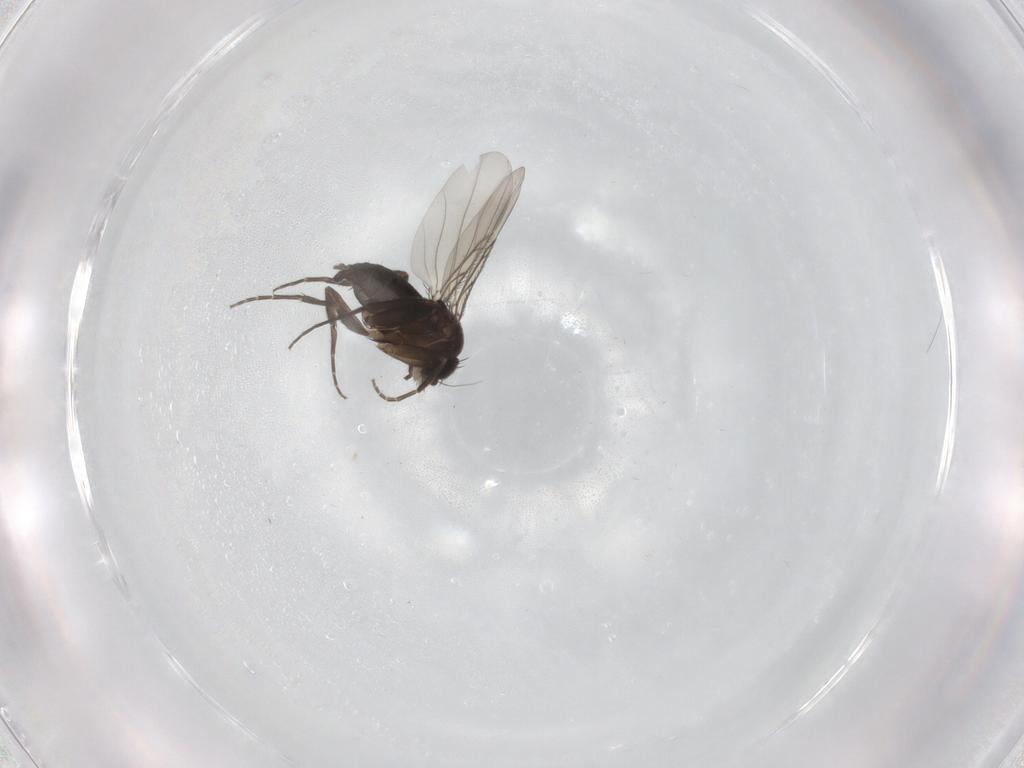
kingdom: Animalia
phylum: Arthropoda
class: Insecta
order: Diptera
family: Phoridae
